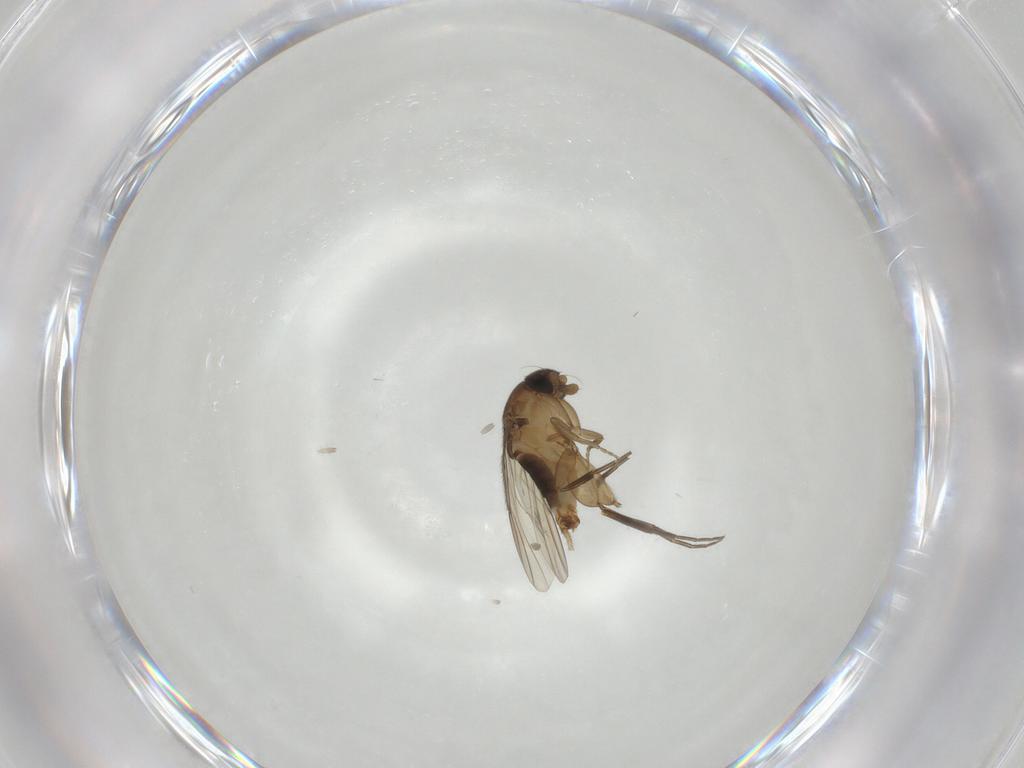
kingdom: Animalia
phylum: Arthropoda
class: Insecta
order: Diptera
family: Phoridae
